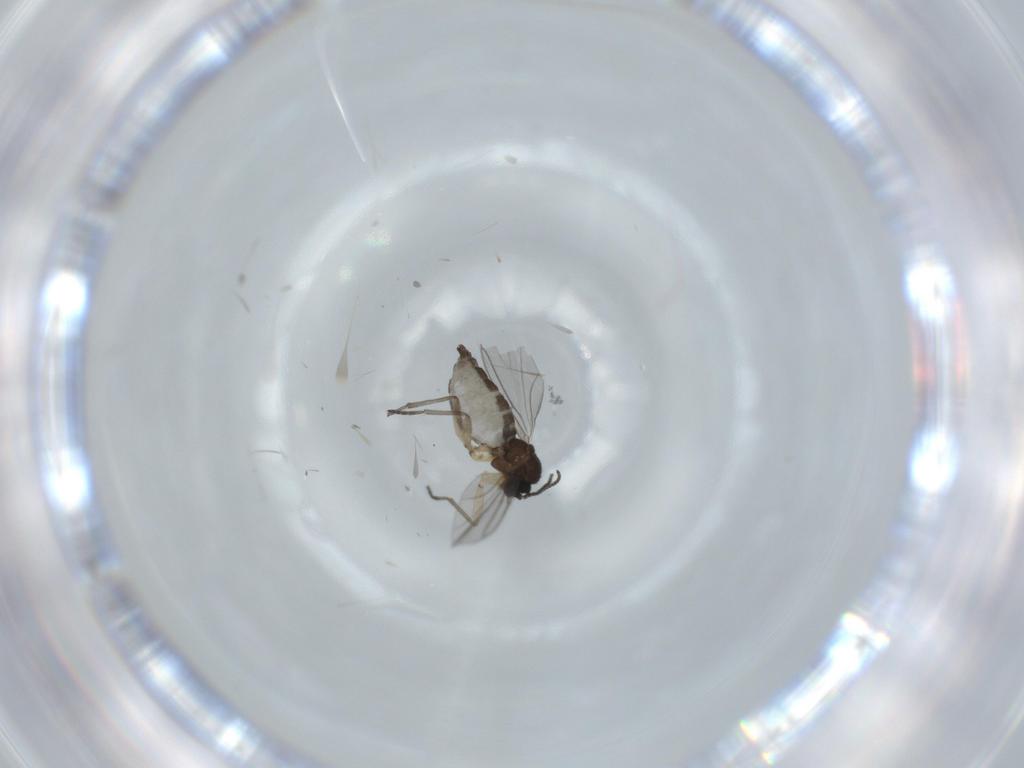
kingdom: Animalia
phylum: Arthropoda
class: Insecta
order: Diptera
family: Sciaridae
